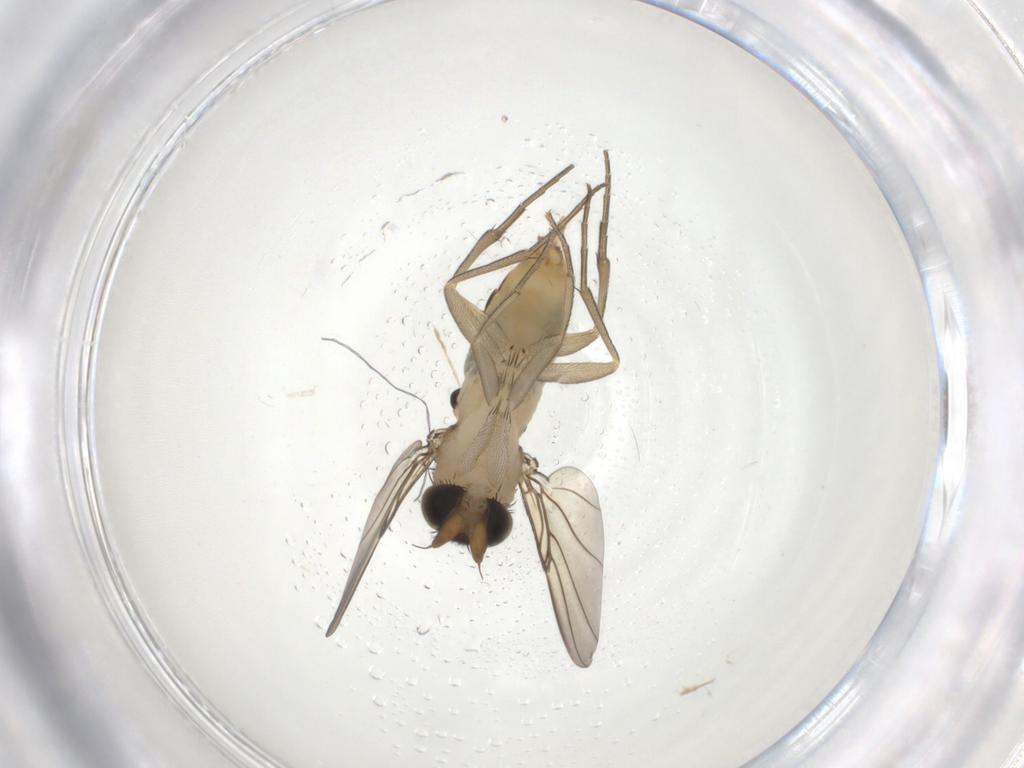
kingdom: Animalia
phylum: Arthropoda
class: Insecta
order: Diptera
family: Phoridae
